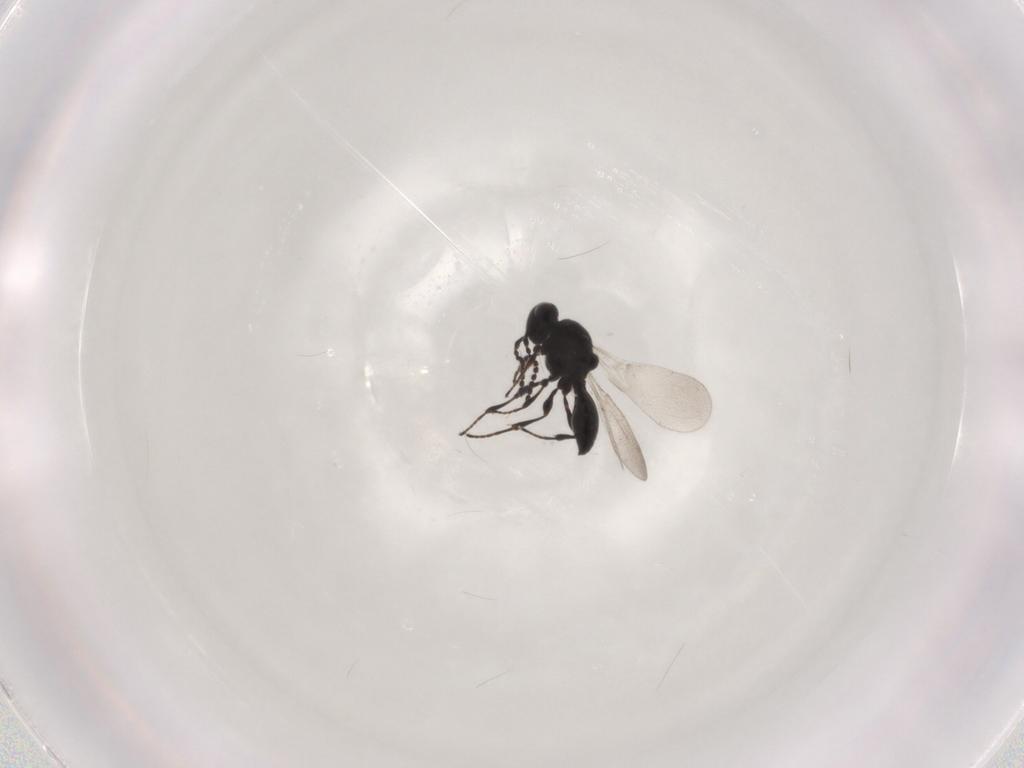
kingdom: Animalia
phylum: Arthropoda
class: Insecta
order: Hymenoptera
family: Platygastridae
